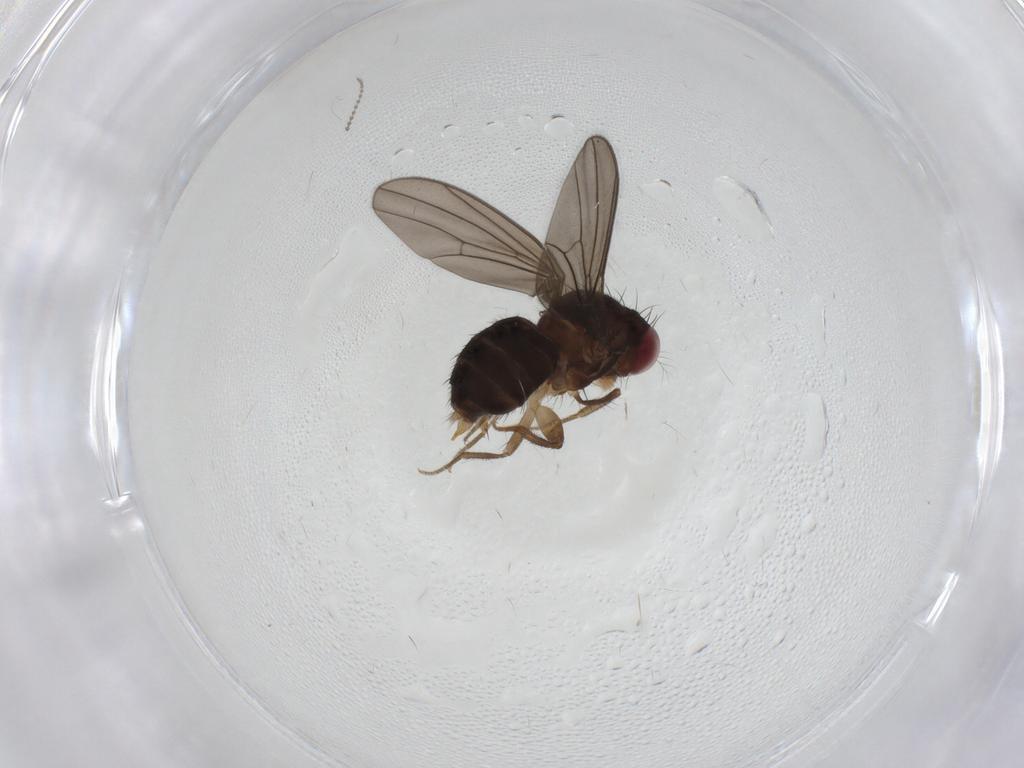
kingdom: Animalia
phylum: Arthropoda
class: Insecta
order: Diptera
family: Drosophilidae
